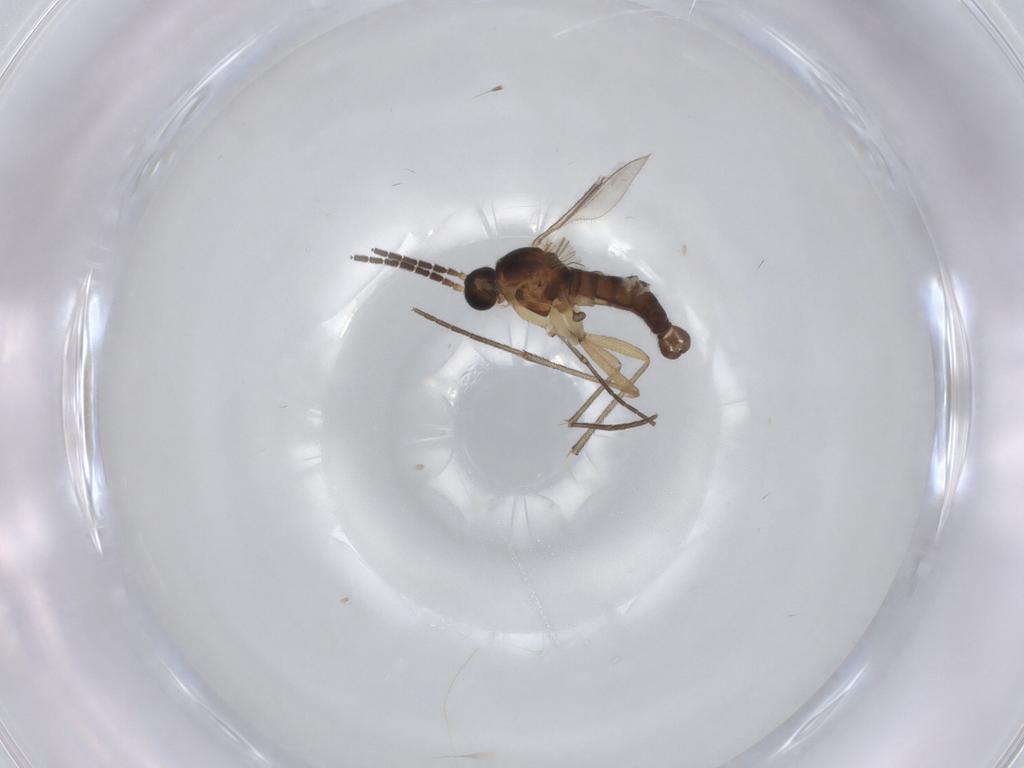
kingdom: Animalia
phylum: Arthropoda
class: Insecta
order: Diptera
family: Sciaridae
